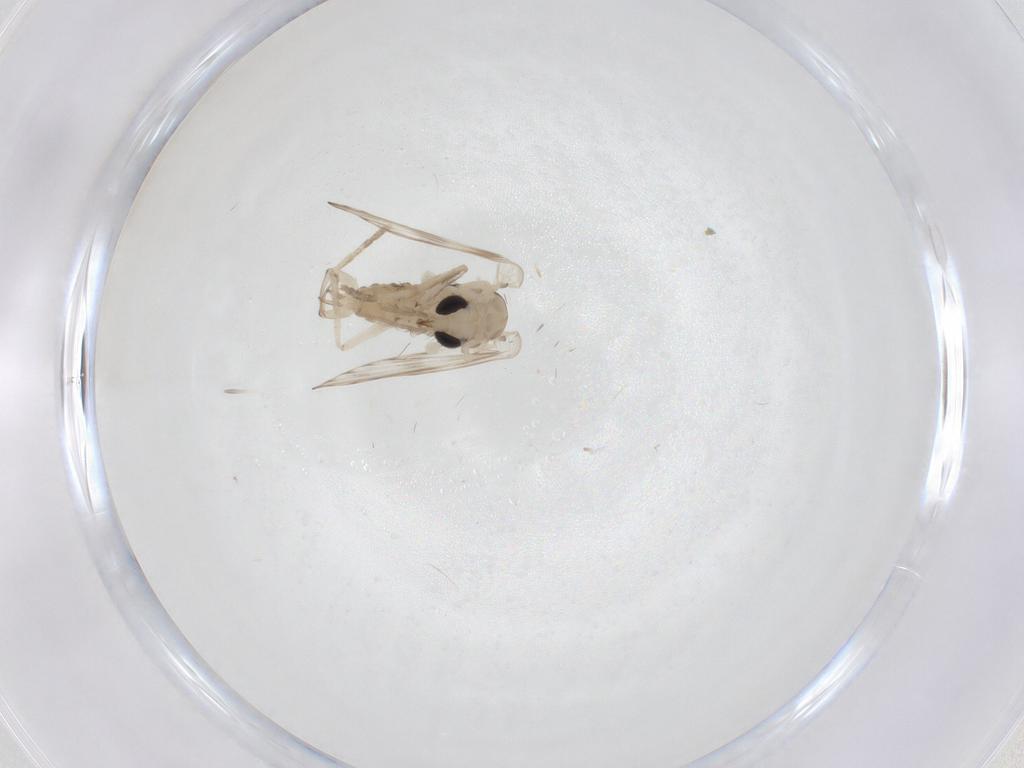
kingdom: Animalia
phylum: Arthropoda
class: Insecta
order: Diptera
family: Psychodidae
